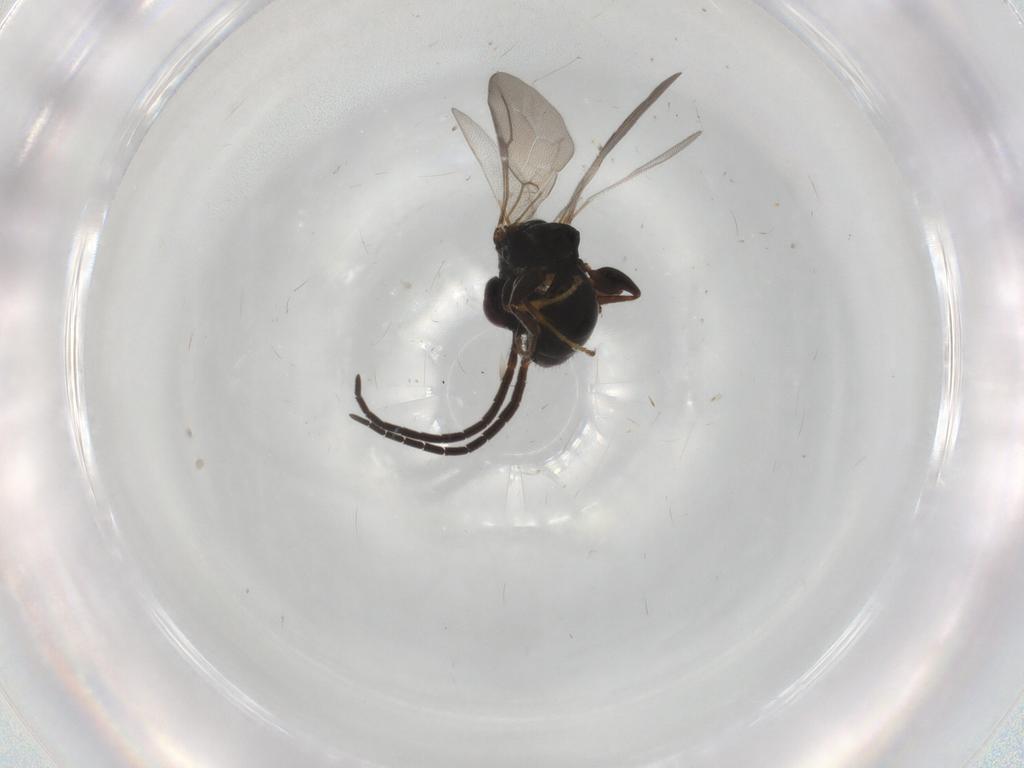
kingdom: Animalia
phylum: Arthropoda
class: Insecta
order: Hymenoptera
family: Bethylidae
